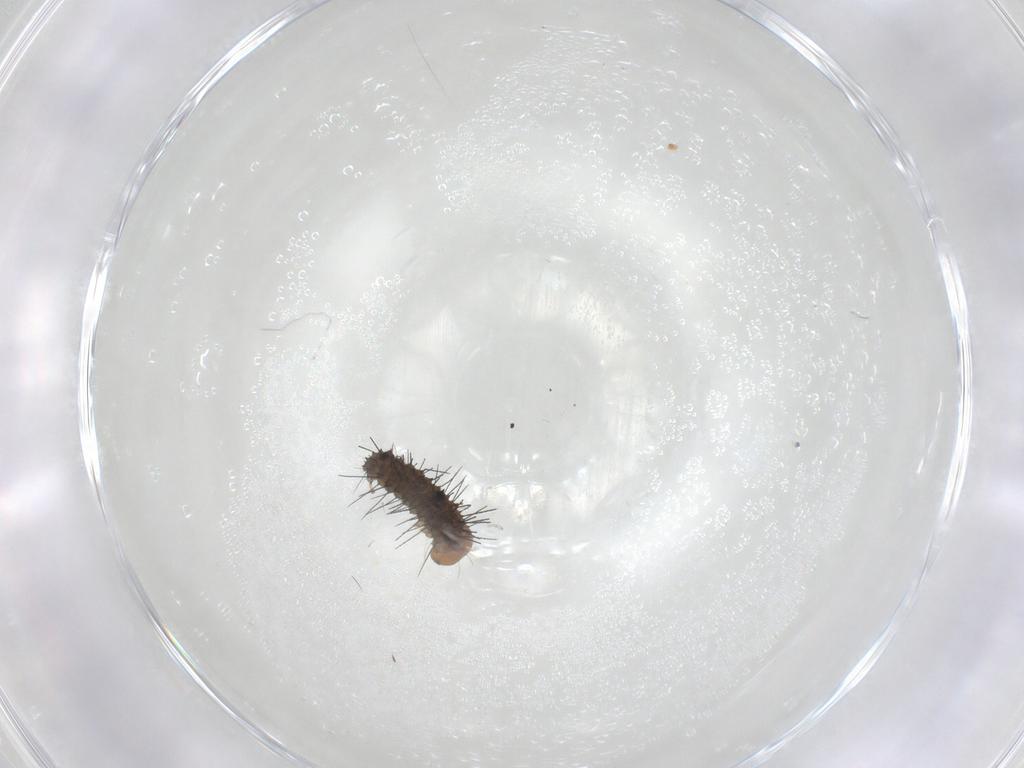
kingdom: Animalia
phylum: Arthropoda
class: Insecta
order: Lepidoptera
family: Erebidae
